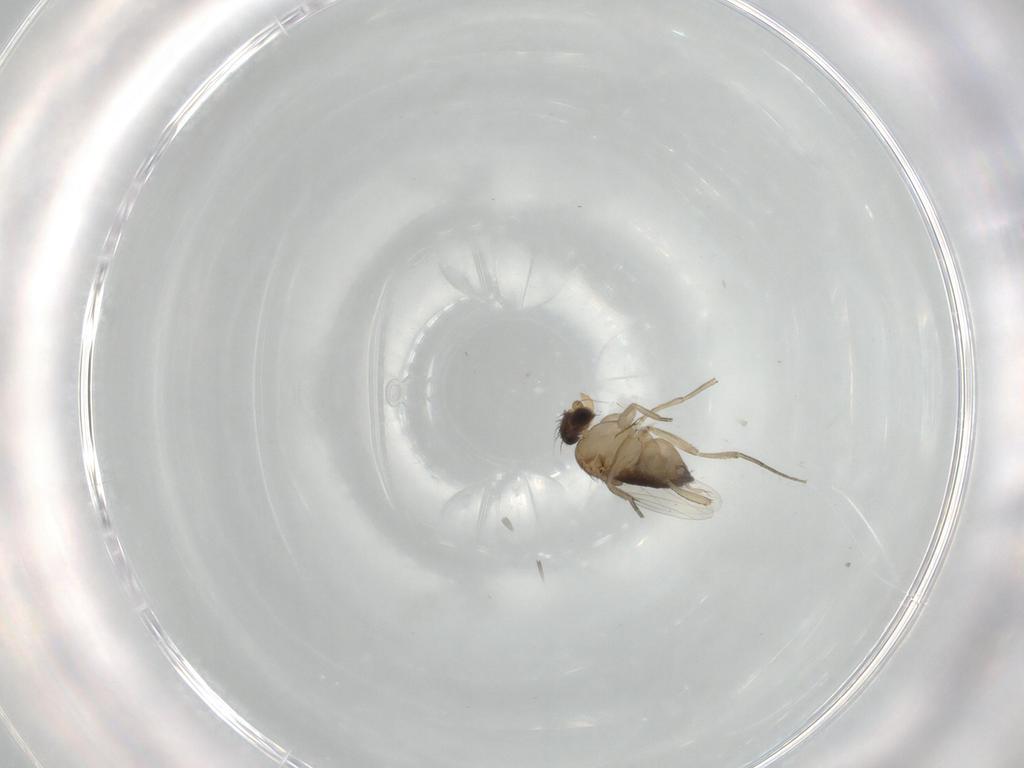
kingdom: Animalia
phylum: Arthropoda
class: Insecta
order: Diptera
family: Dolichopodidae
